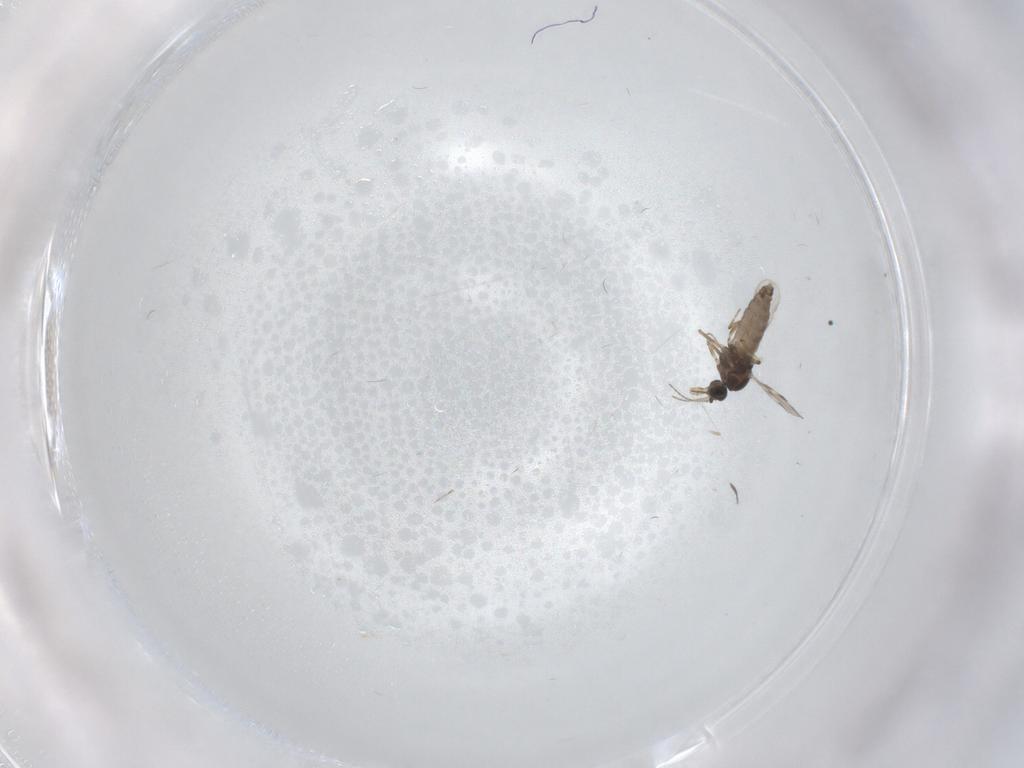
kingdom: Animalia
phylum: Arthropoda
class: Insecta
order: Diptera
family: Culicidae
